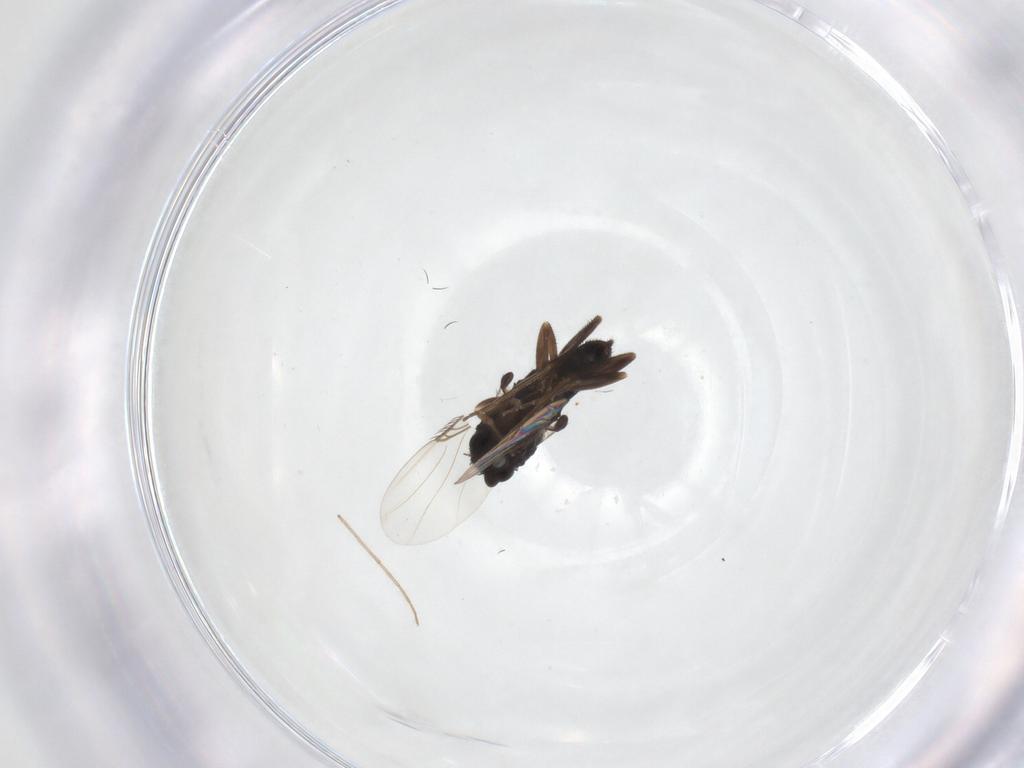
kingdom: Animalia
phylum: Arthropoda
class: Insecta
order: Diptera
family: Chironomidae
